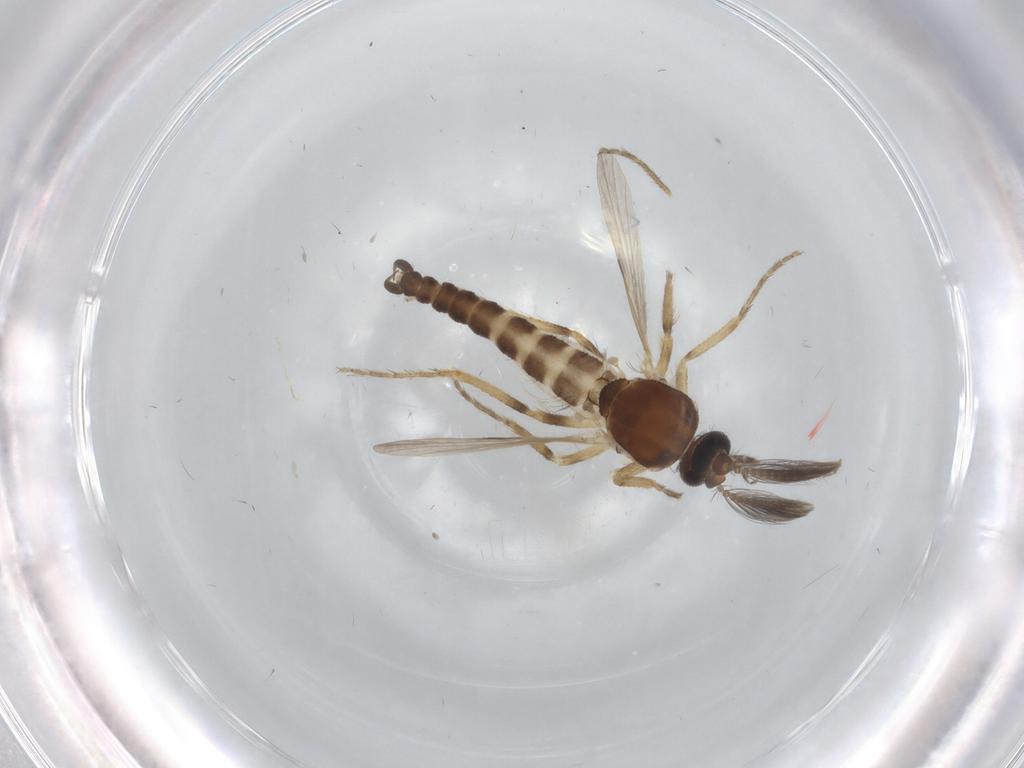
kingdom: Animalia
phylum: Arthropoda
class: Insecta
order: Diptera
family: Ceratopogonidae
